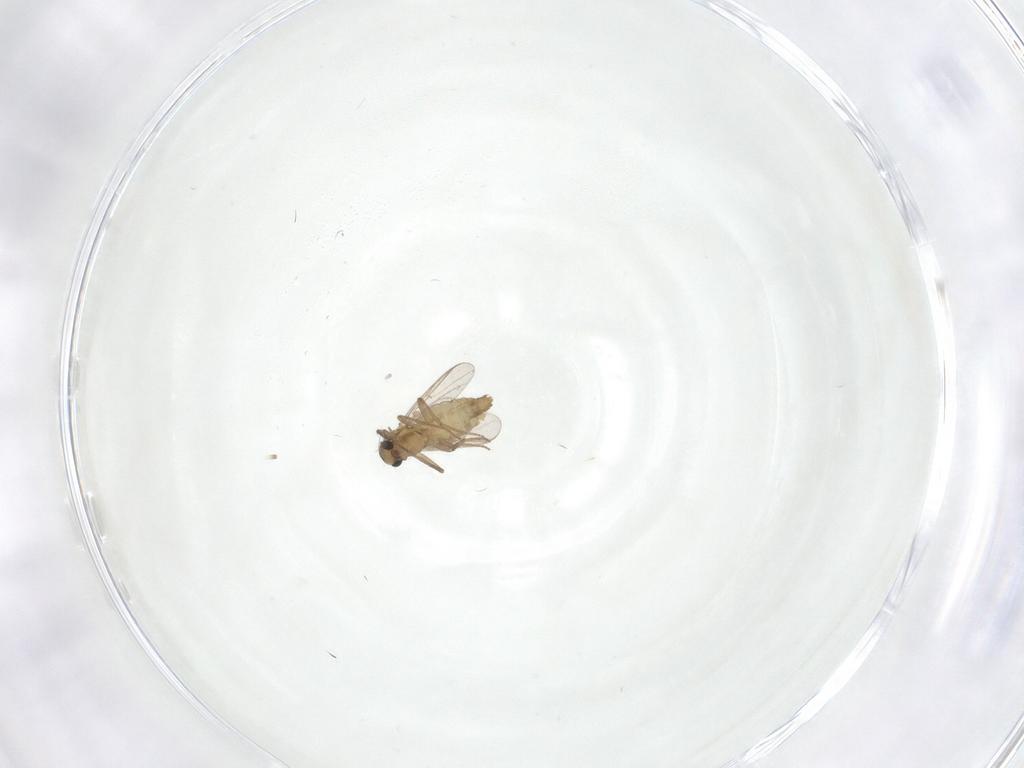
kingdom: Animalia
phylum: Arthropoda
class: Insecta
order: Diptera
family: Chironomidae
